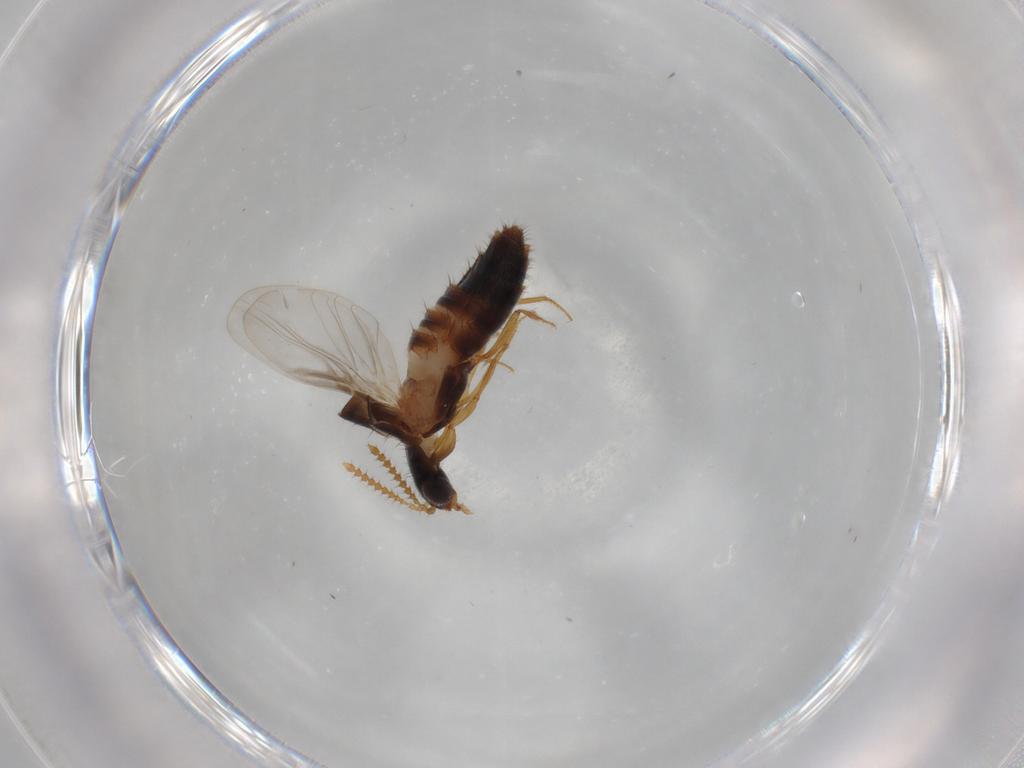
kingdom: Animalia
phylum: Arthropoda
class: Insecta
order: Coleoptera
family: Staphylinidae
